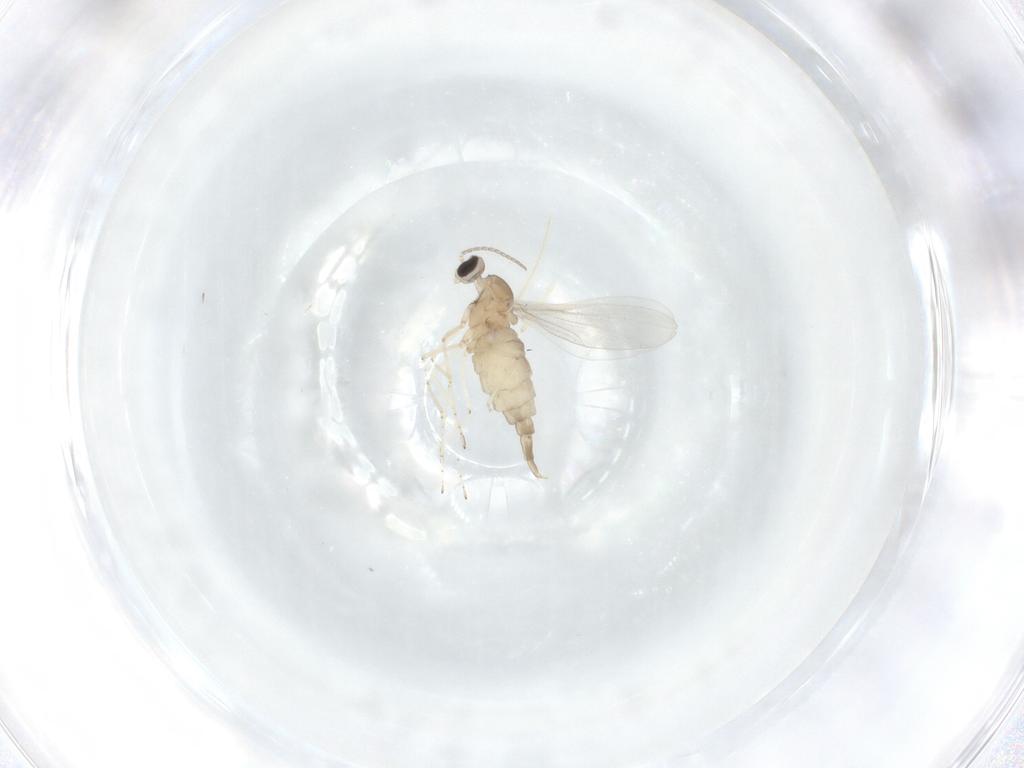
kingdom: Animalia
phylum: Arthropoda
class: Insecta
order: Diptera
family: Cecidomyiidae
